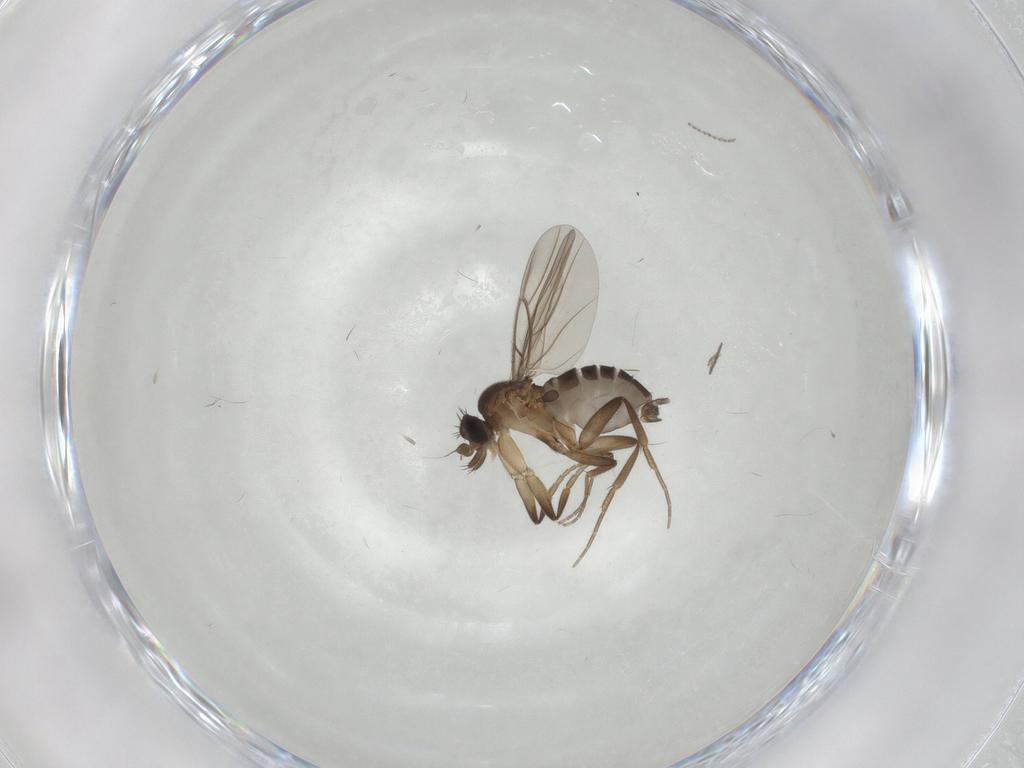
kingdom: Animalia
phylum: Arthropoda
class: Insecta
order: Diptera
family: Phoridae
